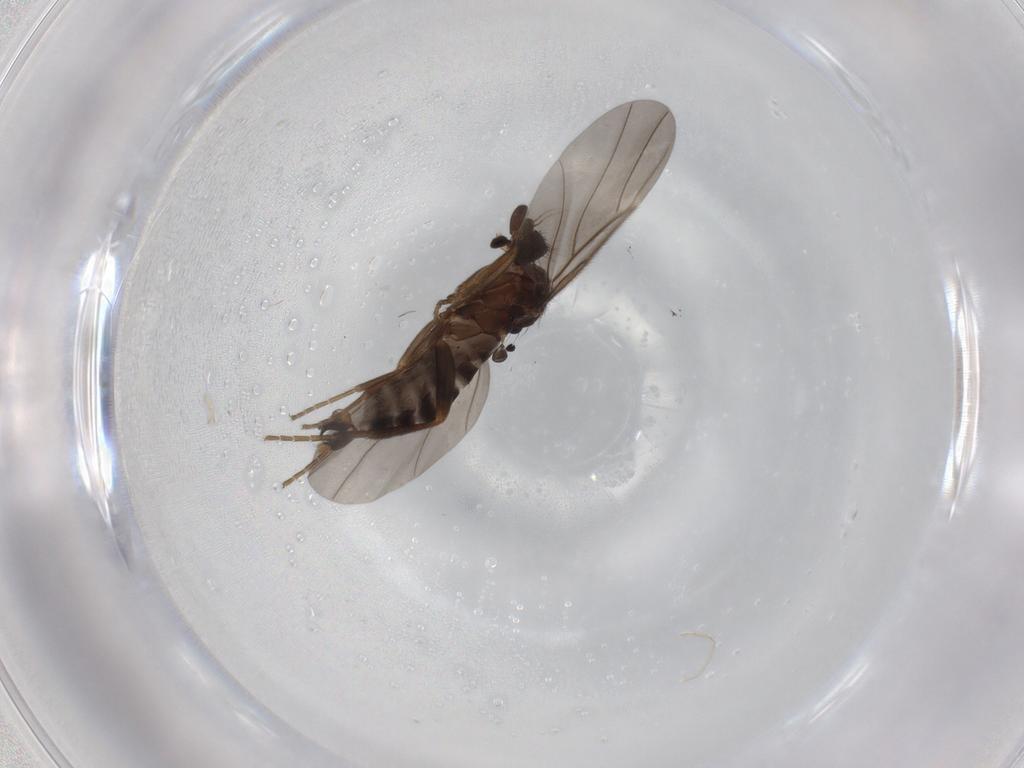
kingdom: Animalia
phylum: Arthropoda
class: Insecta
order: Diptera
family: Phoridae
